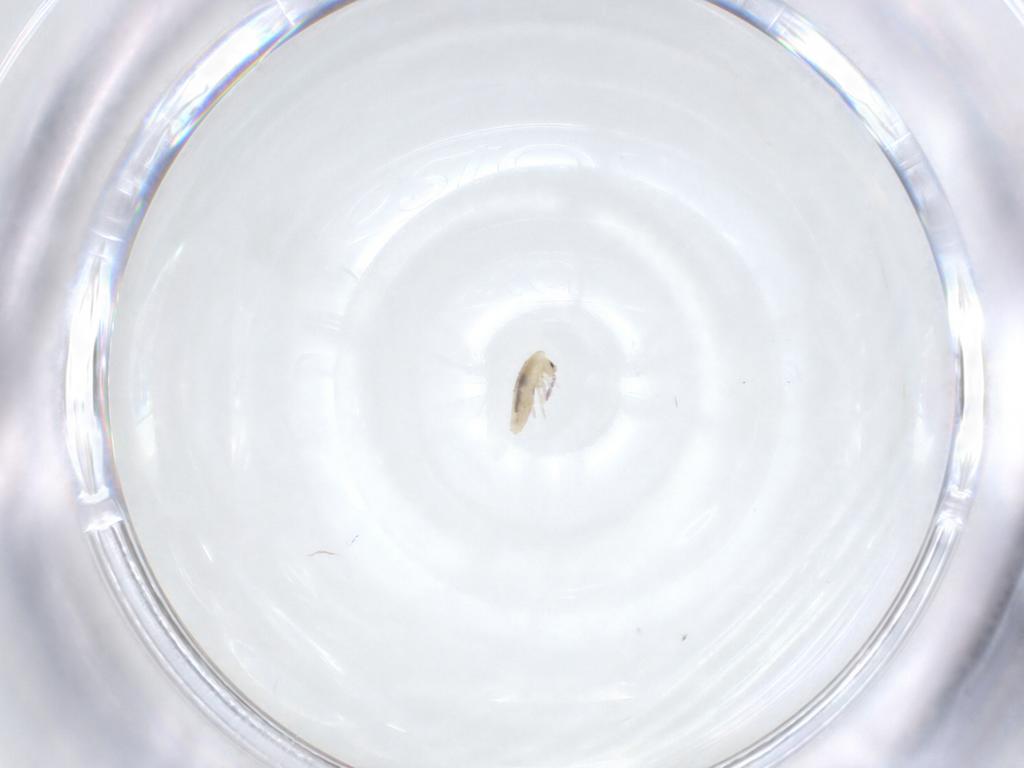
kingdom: Animalia
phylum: Arthropoda
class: Collembola
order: Entomobryomorpha
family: Entomobryidae
